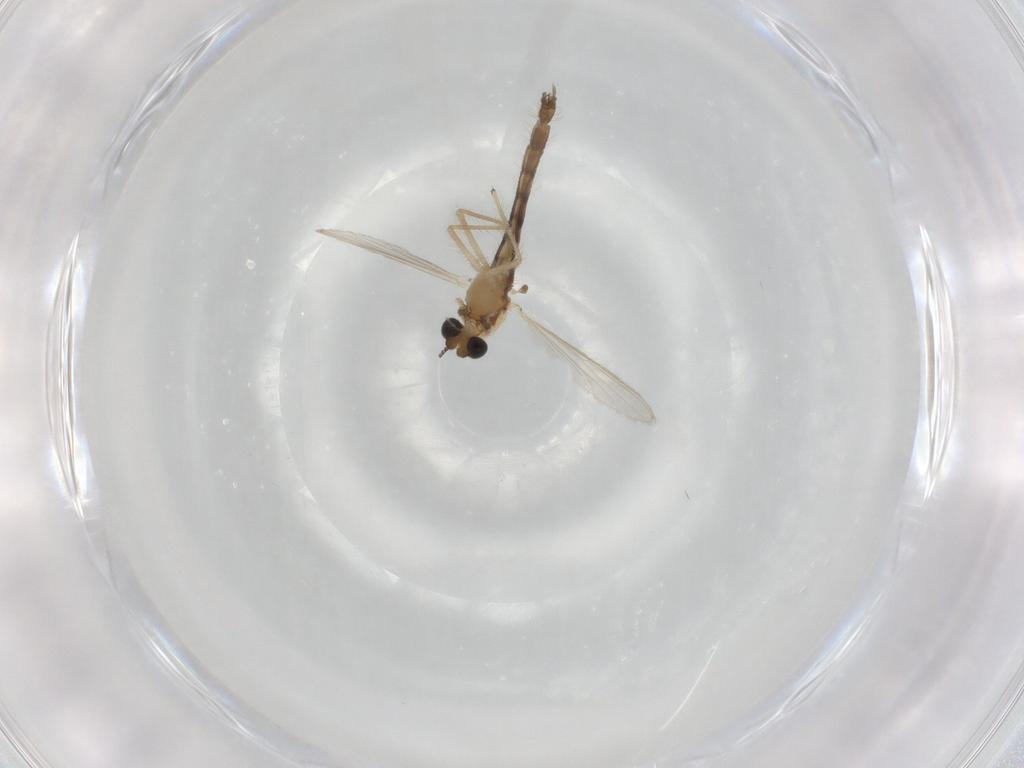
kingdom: Animalia
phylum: Arthropoda
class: Insecta
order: Diptera
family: Chironomidae
